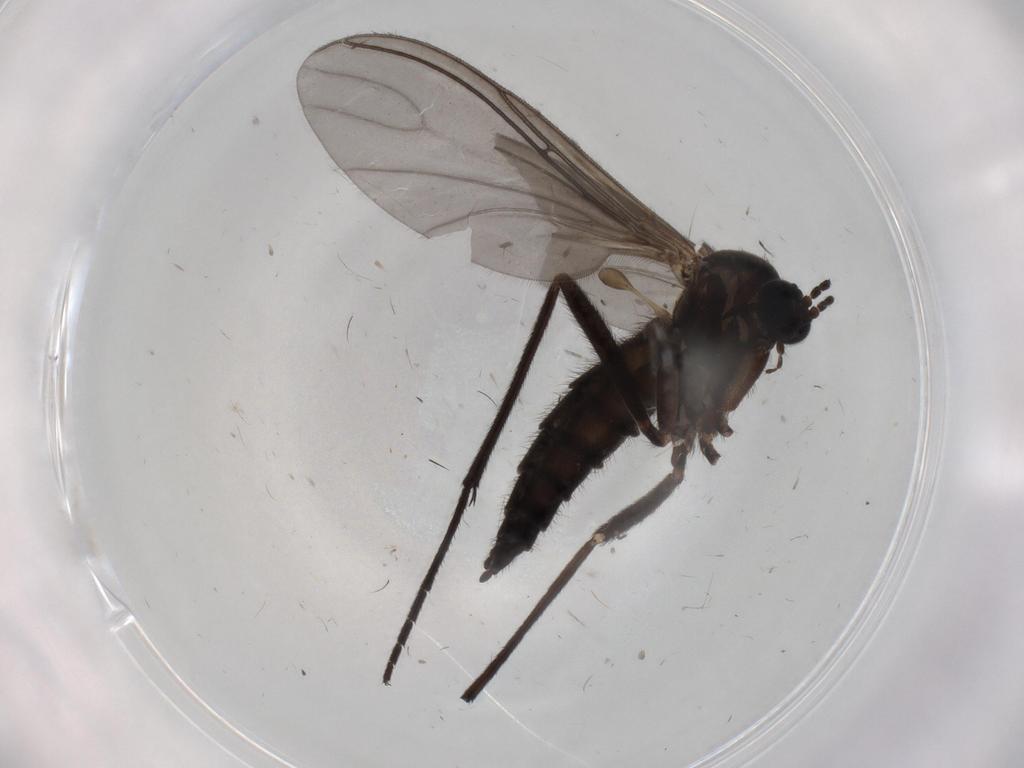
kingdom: Animalia
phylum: Arthropoda
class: Insecta
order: Diptera
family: Sciaridae
